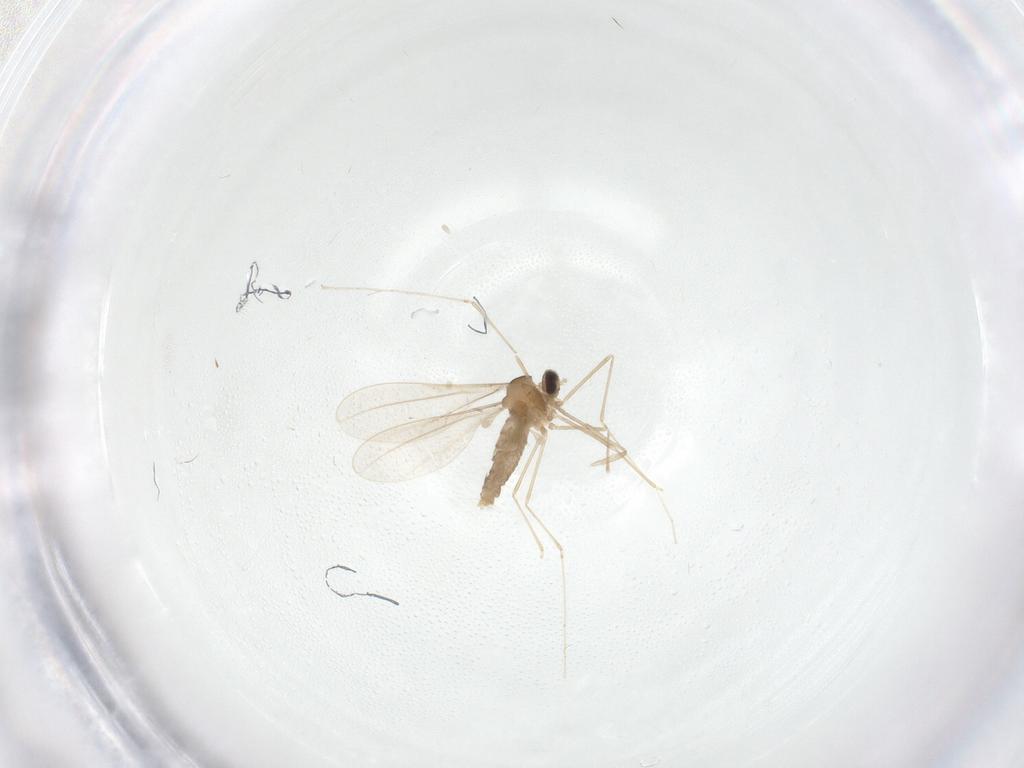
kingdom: Animalia
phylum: Arthropoda
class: Insecta
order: Diptera
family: Cecidomyiidae
